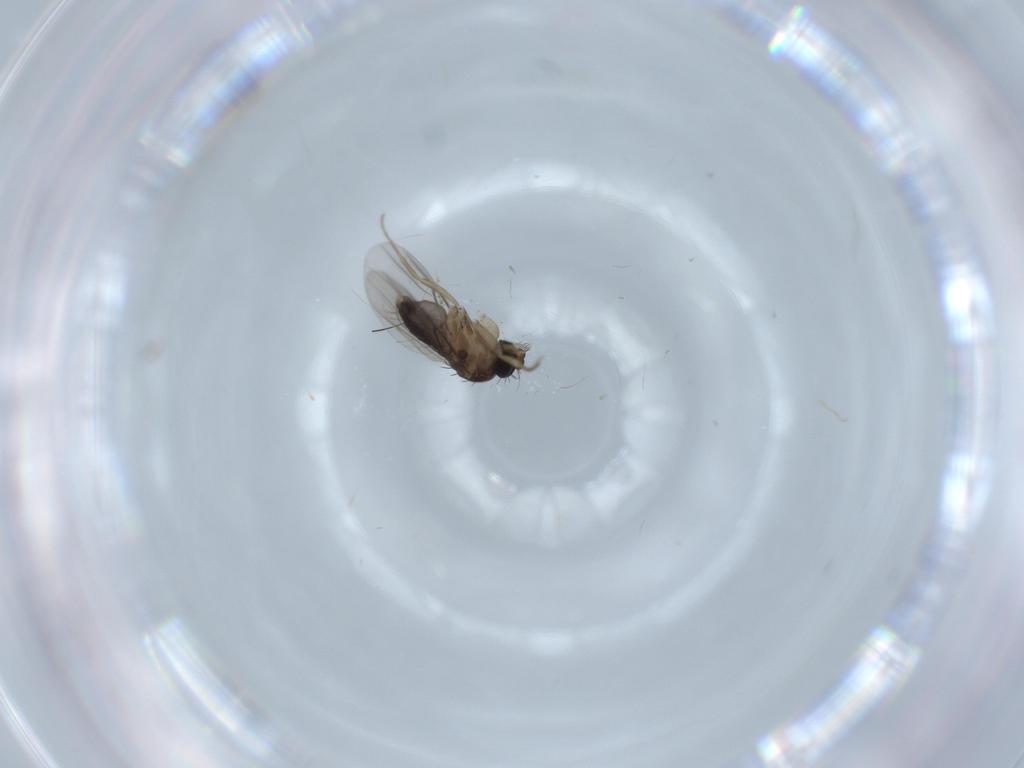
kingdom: Animalia
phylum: Arthropoda
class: Insecta
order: Diptera
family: Phoridae
